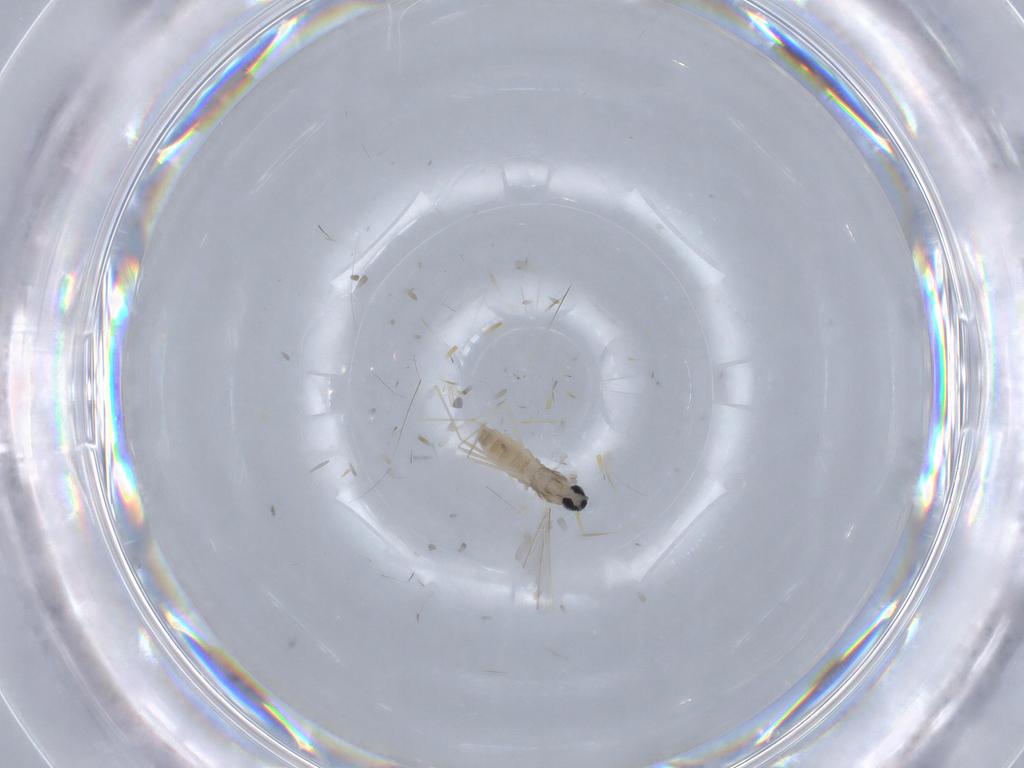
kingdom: Animalia
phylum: Arthropoda
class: Insecta
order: Diptera
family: Cecidomyiidae
